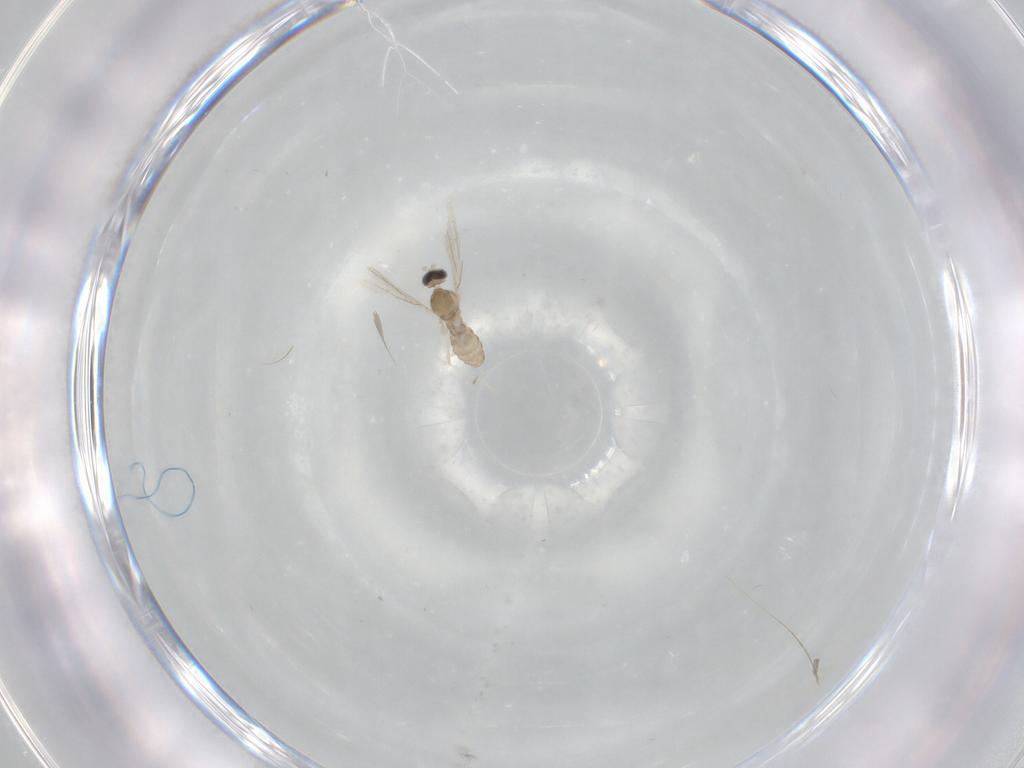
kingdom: Animalia
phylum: Arthropoda
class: Insecta
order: Diptera
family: Cecidomyiidae
